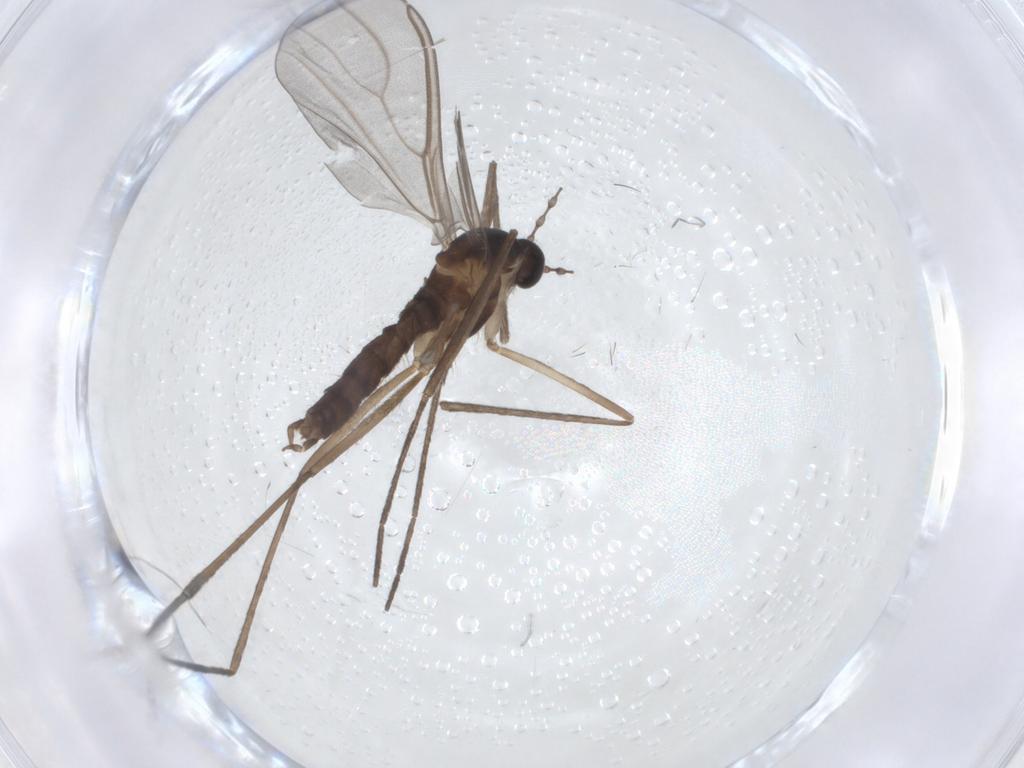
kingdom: Animalia
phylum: Arthropoda
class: Insecta
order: Diptera
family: Cecidomyiidae
